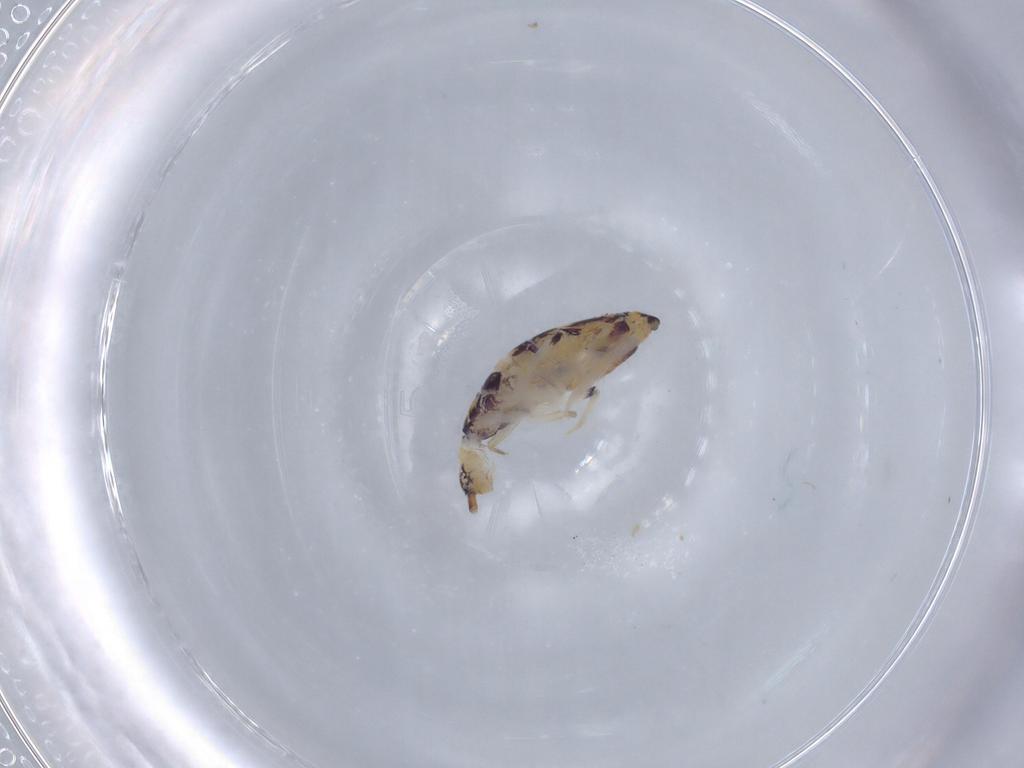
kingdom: Animalia
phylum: Arthropoda
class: Collembola
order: Entomobryomorpha
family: Entomobryidae
